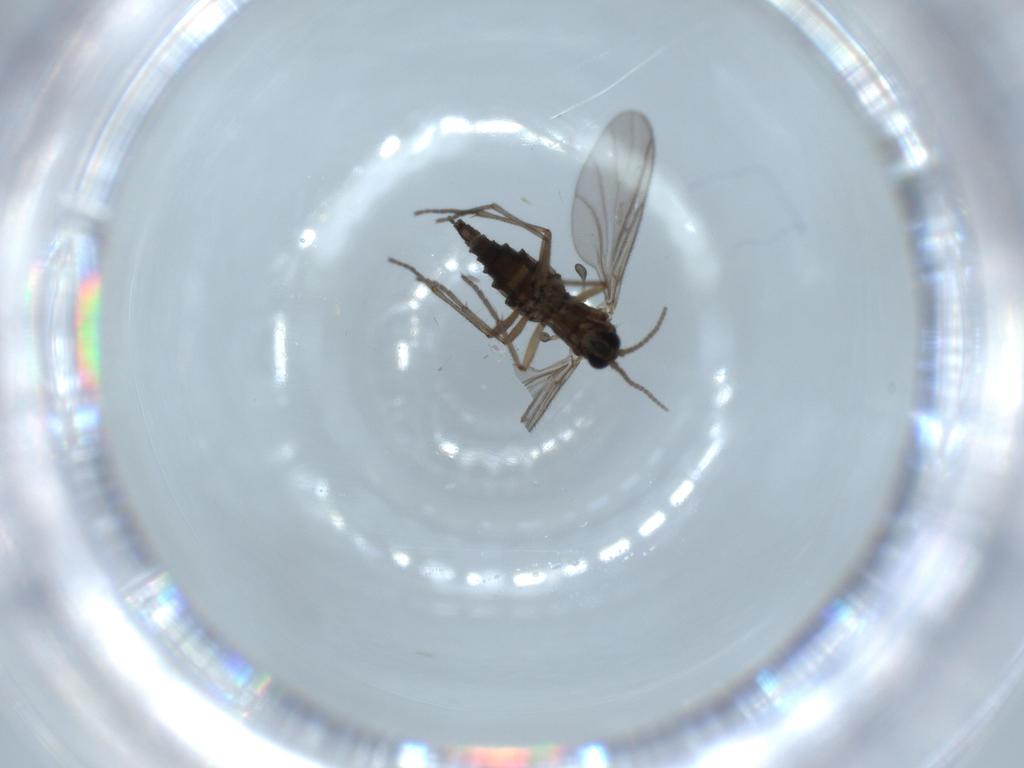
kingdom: Animalia
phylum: Arthropoda
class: Insecta
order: Diptera
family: Sciaridae
